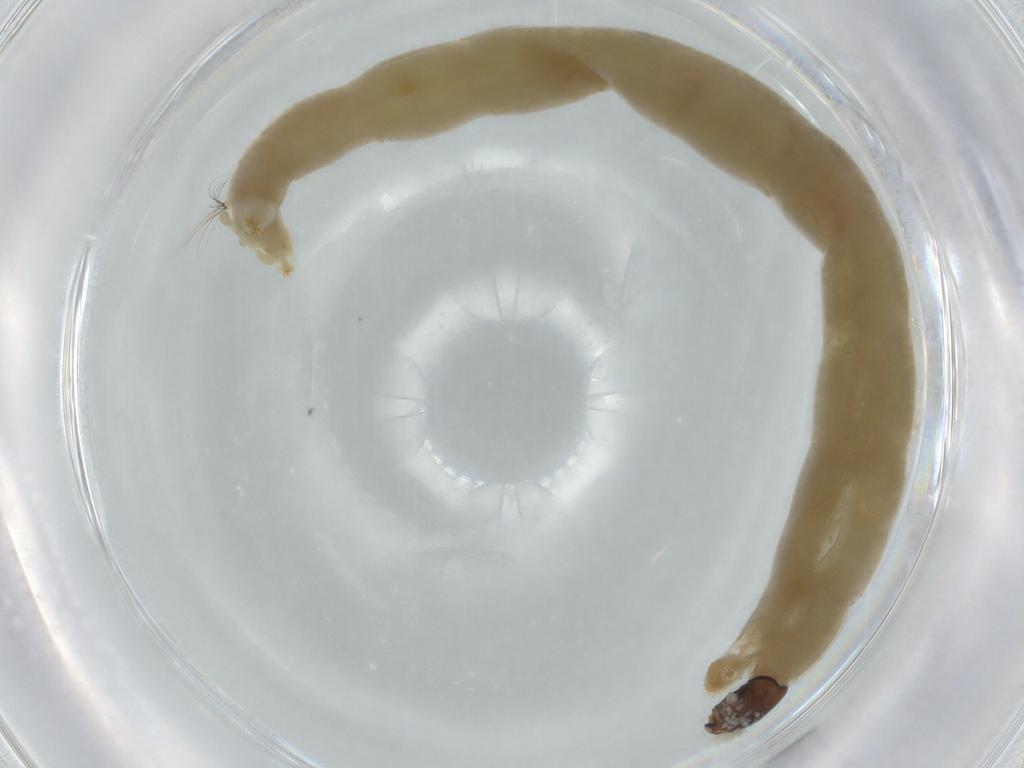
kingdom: Animalia
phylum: Arthropoda
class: Insecta
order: Diptera
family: Chironomidae
